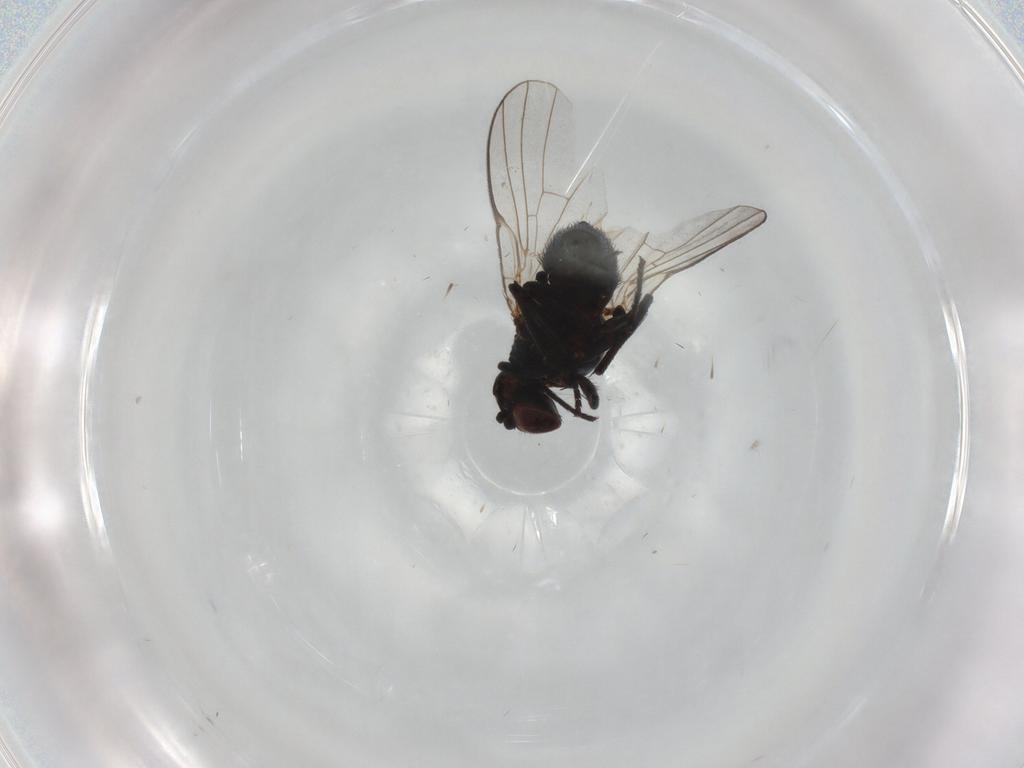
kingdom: Animalia
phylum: Arthropoda
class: Insecta
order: Diptera
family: Agromyzidae
